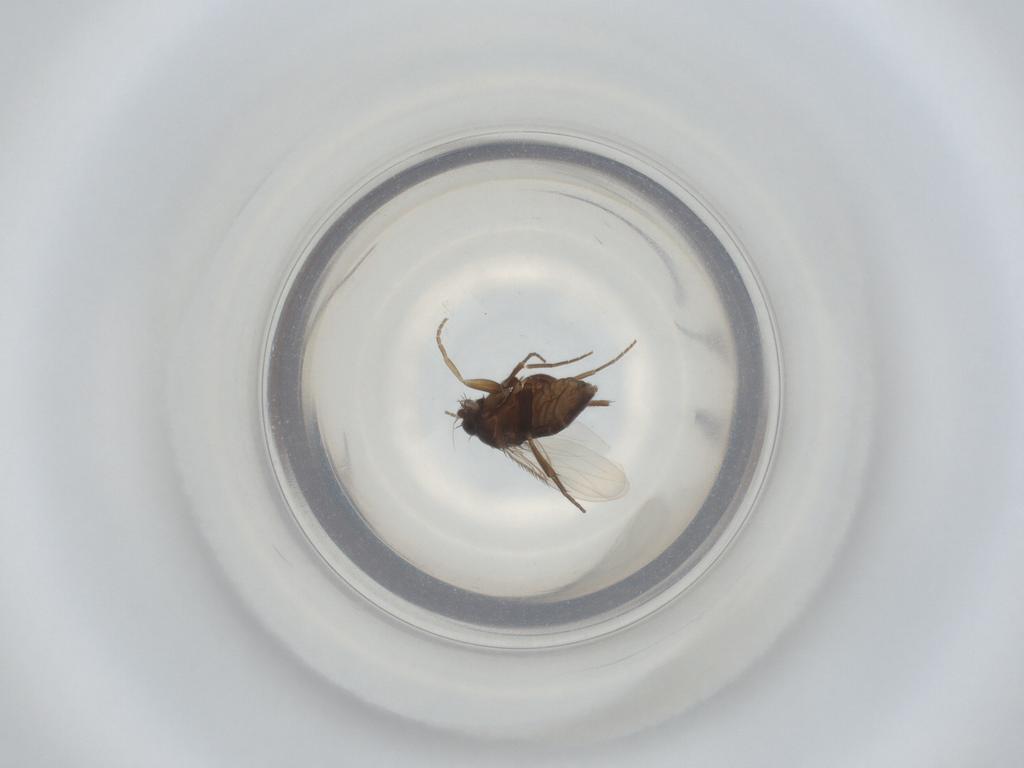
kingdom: Animalia
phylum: Arthropoda
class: Insecta
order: Diptera
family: Phoridae
